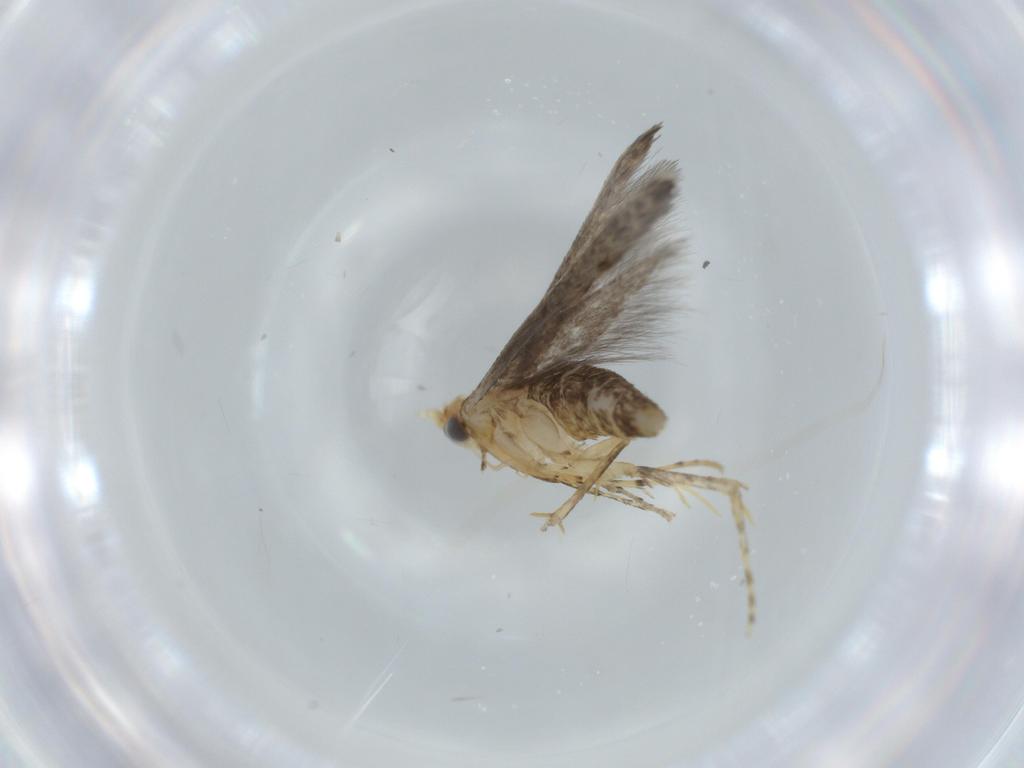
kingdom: Animalia
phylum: Arthropoda
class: Insecta
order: Lepidoptera
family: Argyresthiidae
